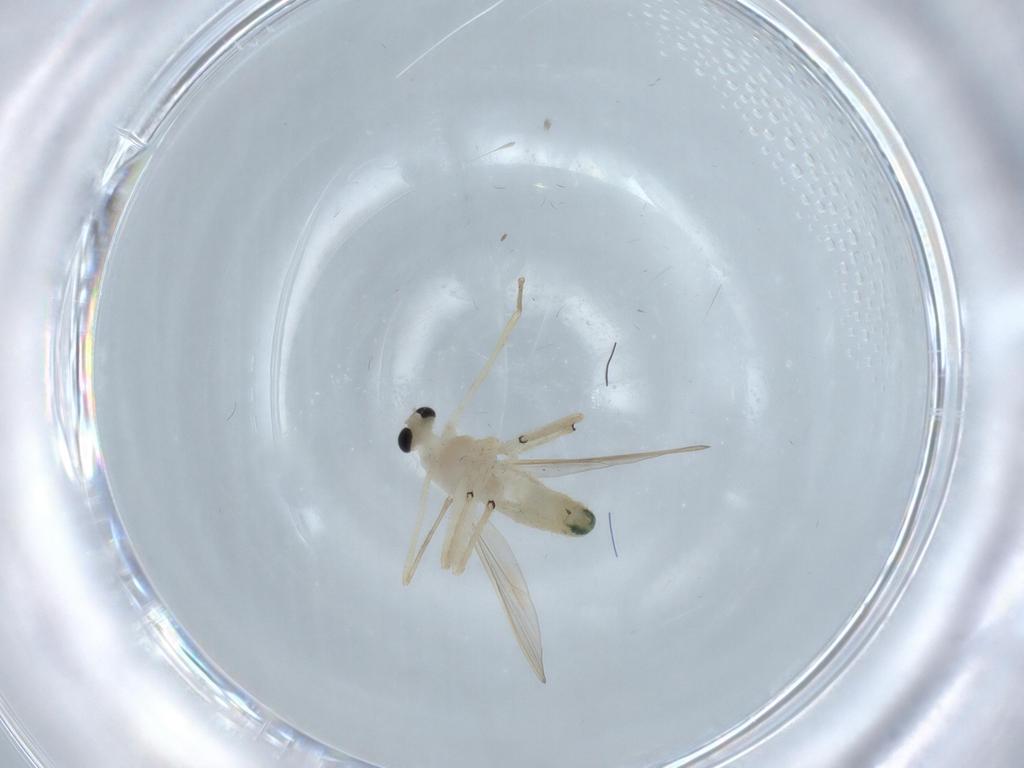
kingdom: Animalia
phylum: Arthropoda
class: Insecta
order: Diptera
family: Chironomidae
